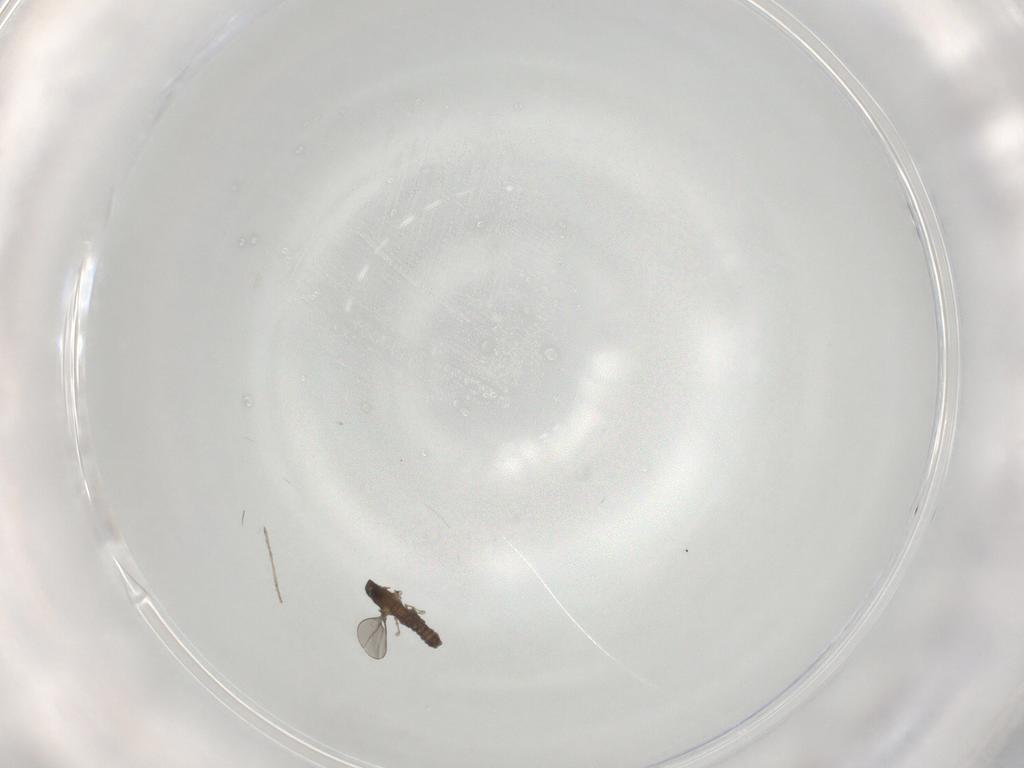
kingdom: Animalia
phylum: Arthropoda
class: Insecta
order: Diptera
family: Cecidomyiidae
